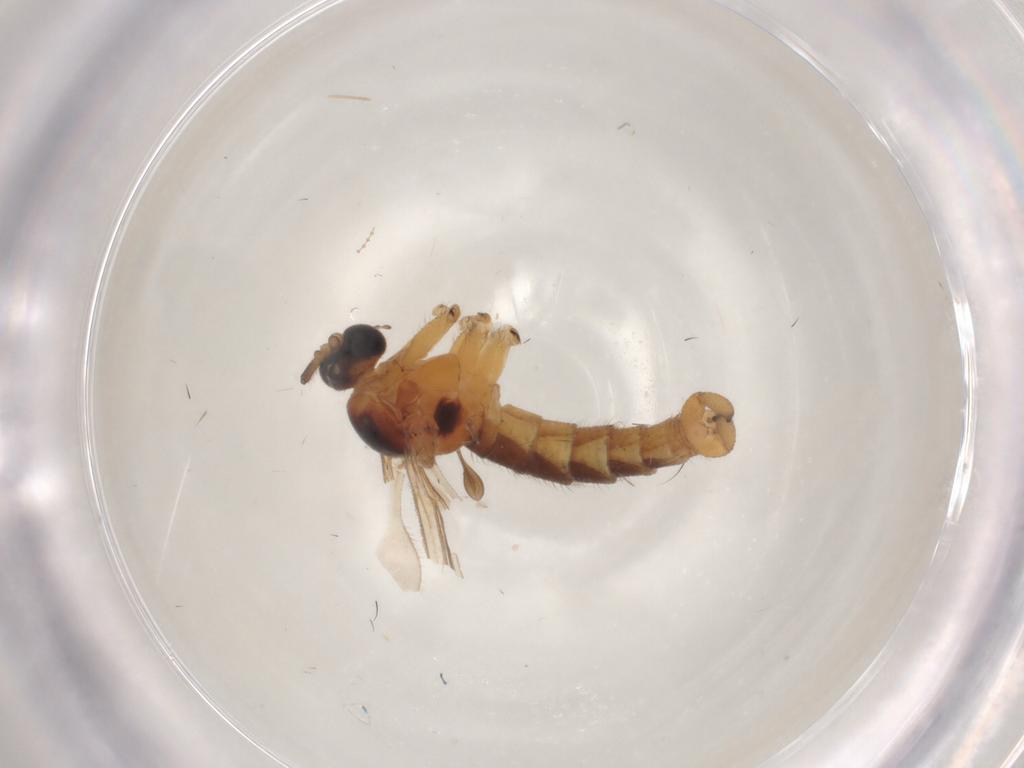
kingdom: Animalia
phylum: Arthropoda
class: Insecta
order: Diptera
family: Sciaridae
